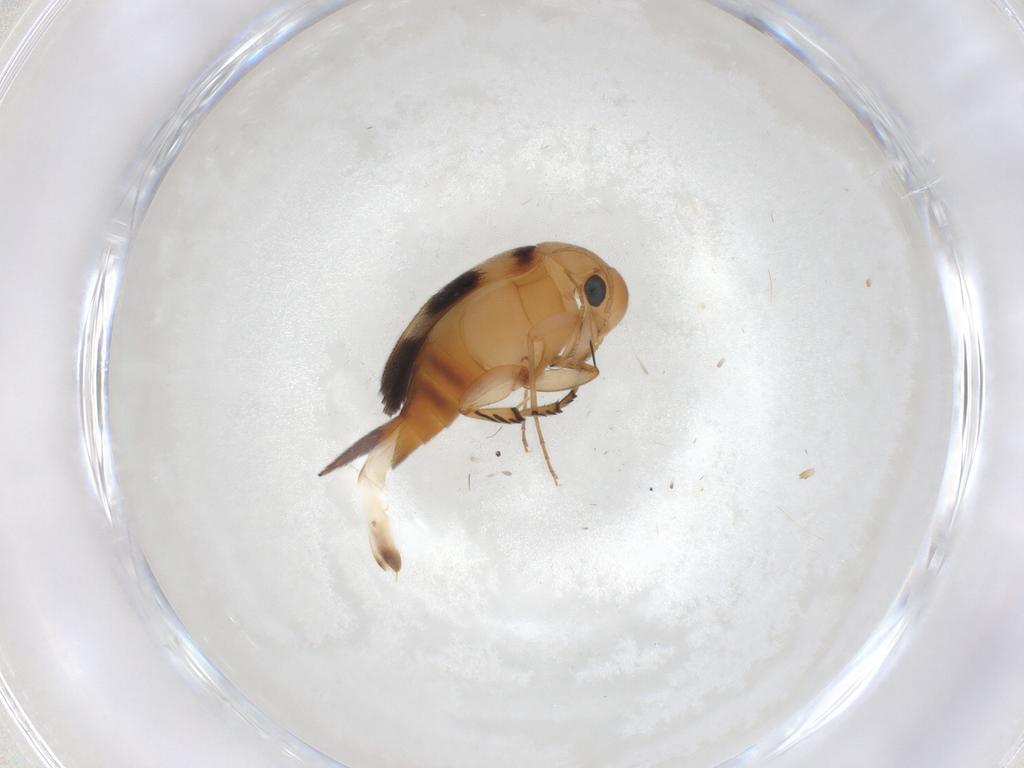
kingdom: Animalia
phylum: Arthropoda
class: Insecta
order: Coleoptera
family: Mordellidae
